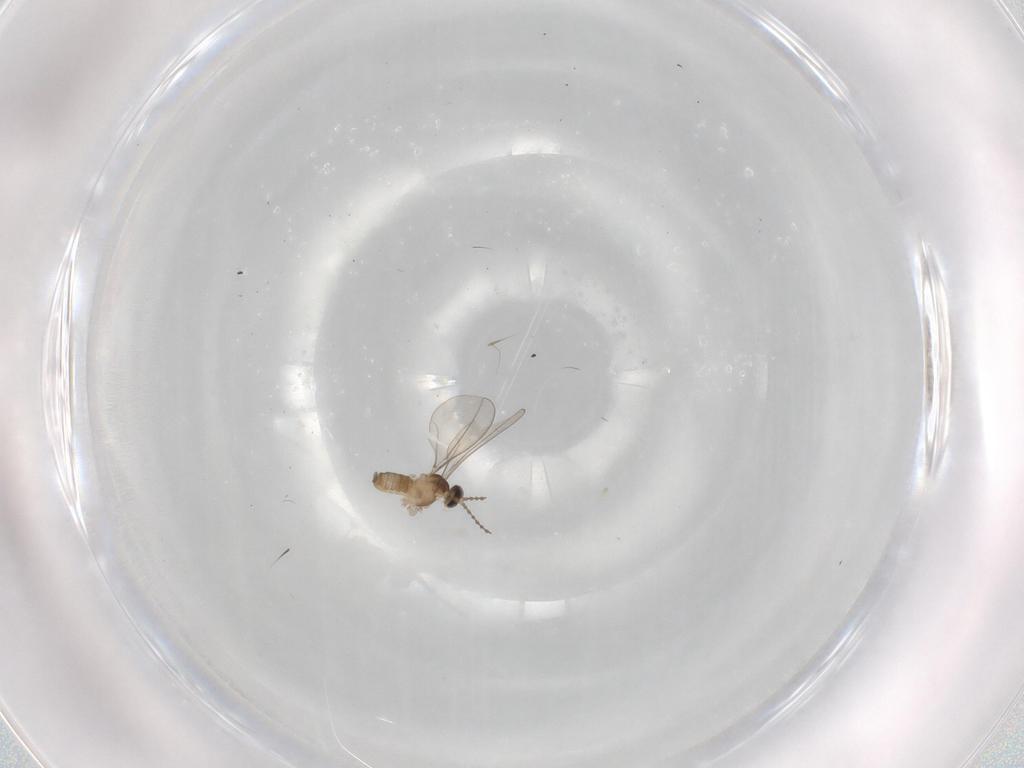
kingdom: Animalia
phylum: Arthropoda
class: Insecta
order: Diptera
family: Cecidomyiidae
